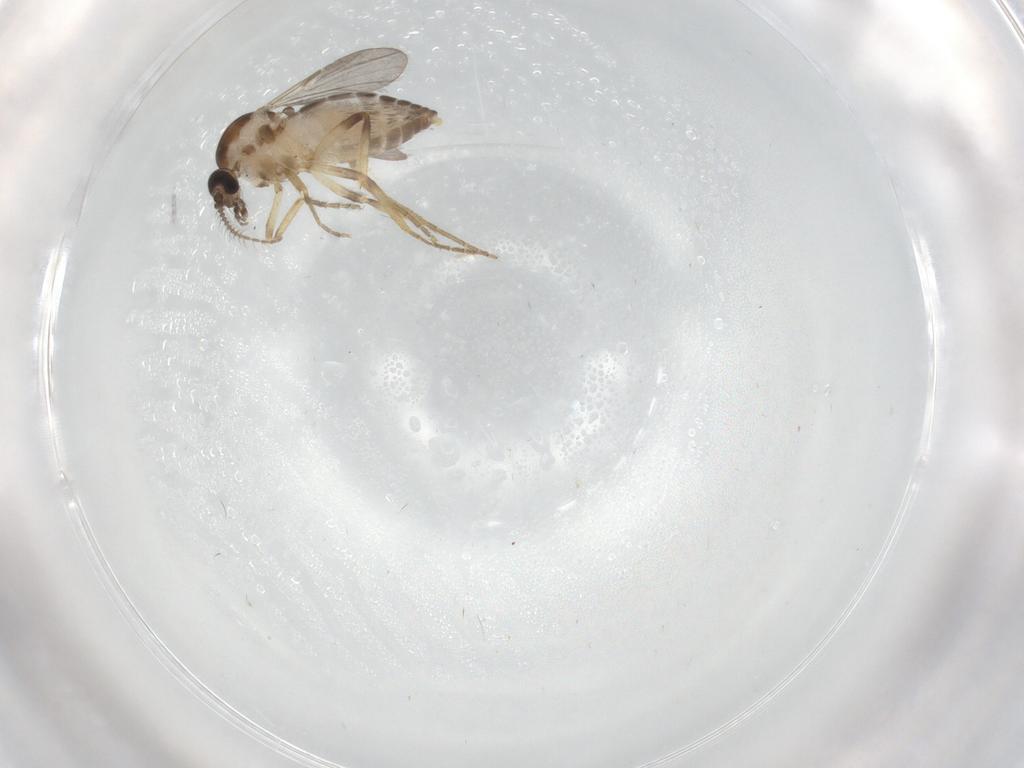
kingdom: Animalia
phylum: Arthropoda
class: Insecta
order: Diptera
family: Ceratopogonidae
